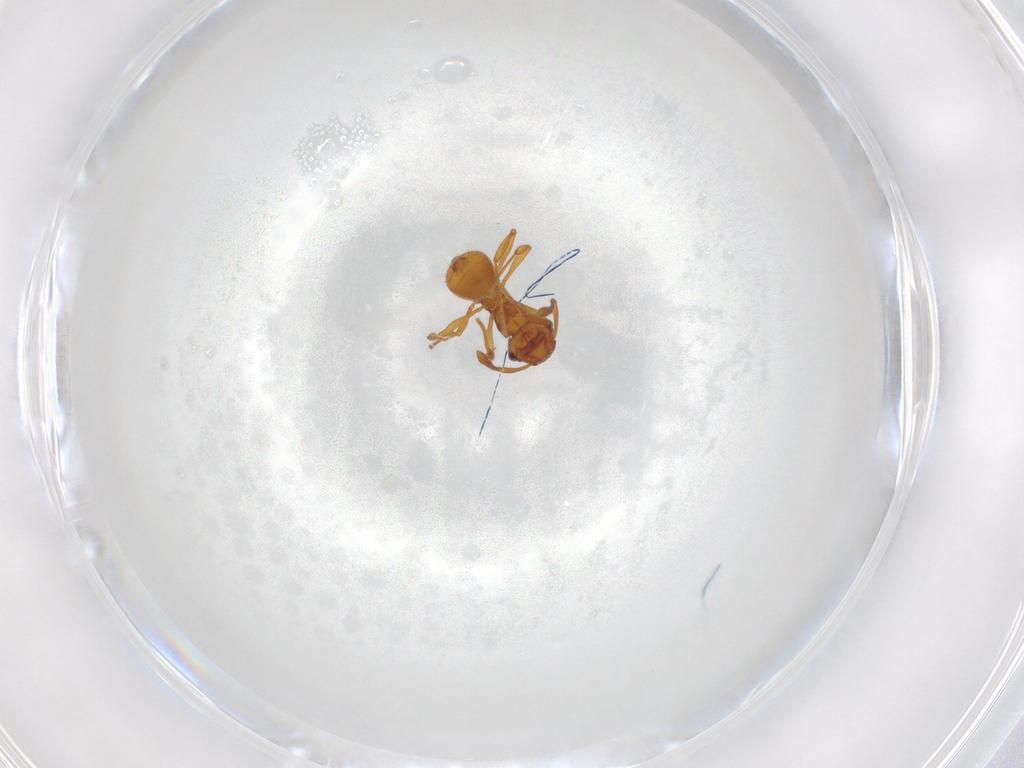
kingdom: Animalia
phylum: Arthropoda
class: Insecta
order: Hymenoptera
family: Formicidae
